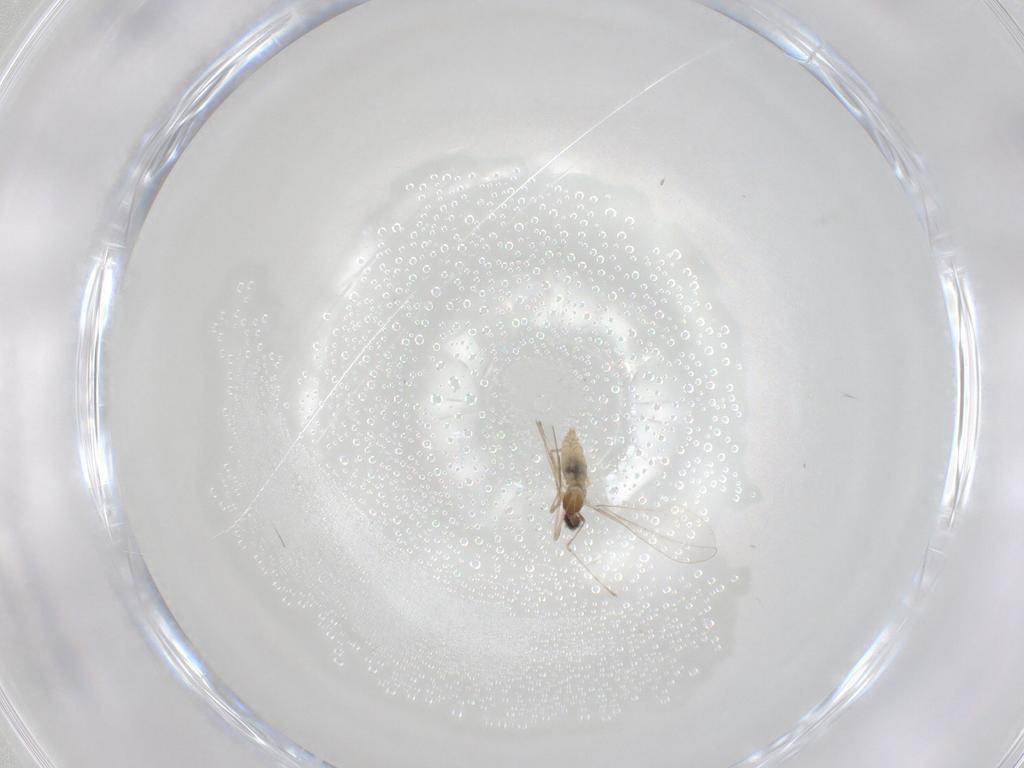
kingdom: Animalia
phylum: Arthropoda
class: Insecta
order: Diptera
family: Cecidomyiidae
